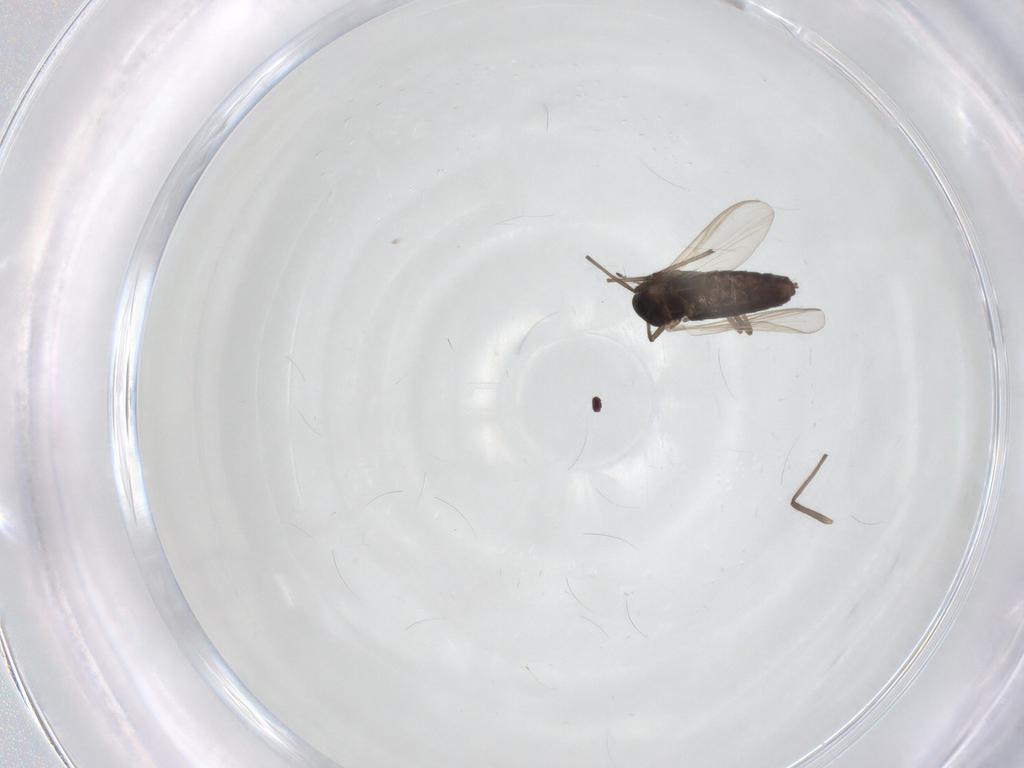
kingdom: Animalia
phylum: Arthropoda
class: Insecta
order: Diptera
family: Chironomidae
